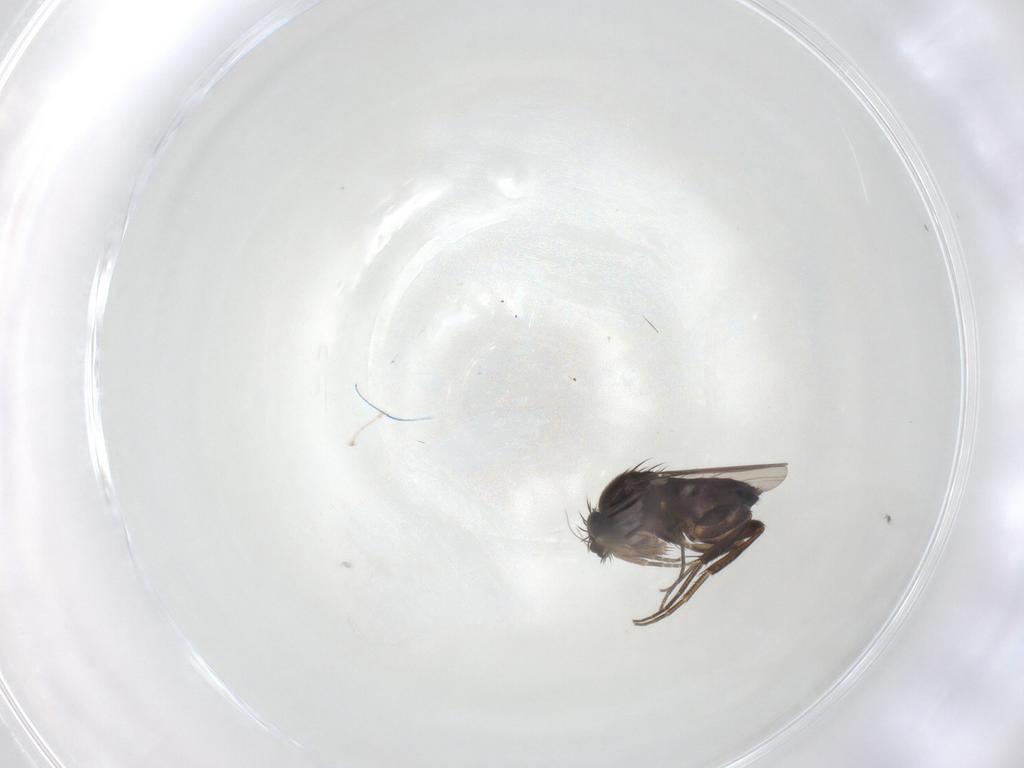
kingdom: Animalia
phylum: Arthropoda
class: Insecta
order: Diptera
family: Phoridae
